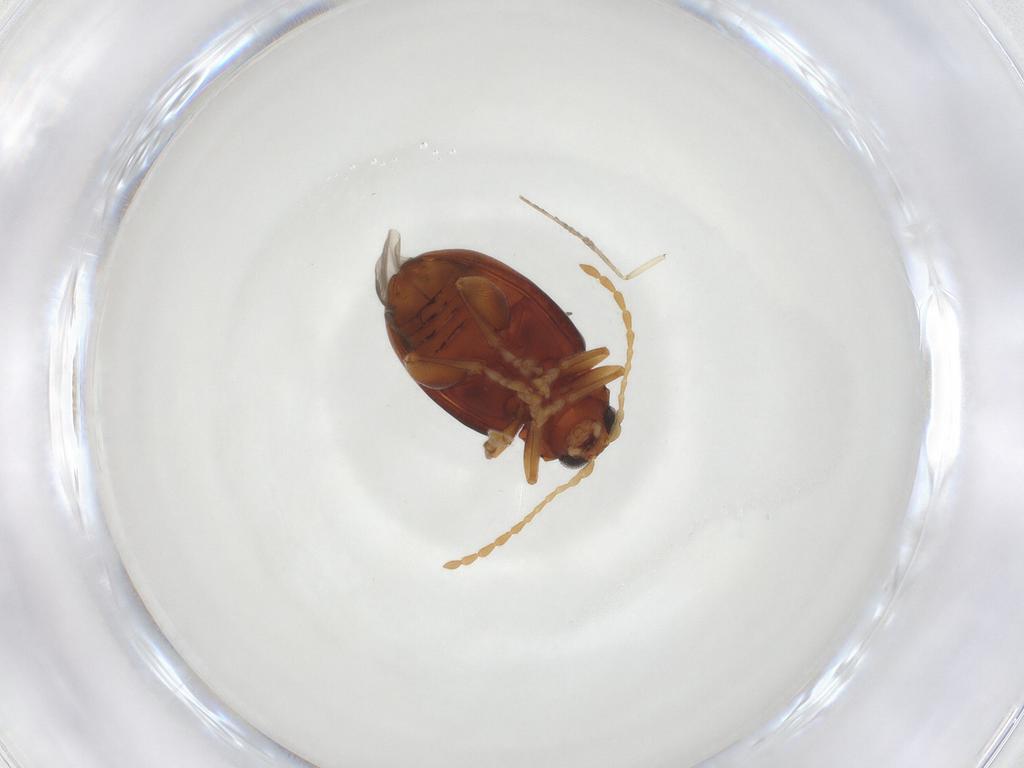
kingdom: Animalia
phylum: Arthropoda
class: Insecta
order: Coleoptera
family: Chrysomelidae
